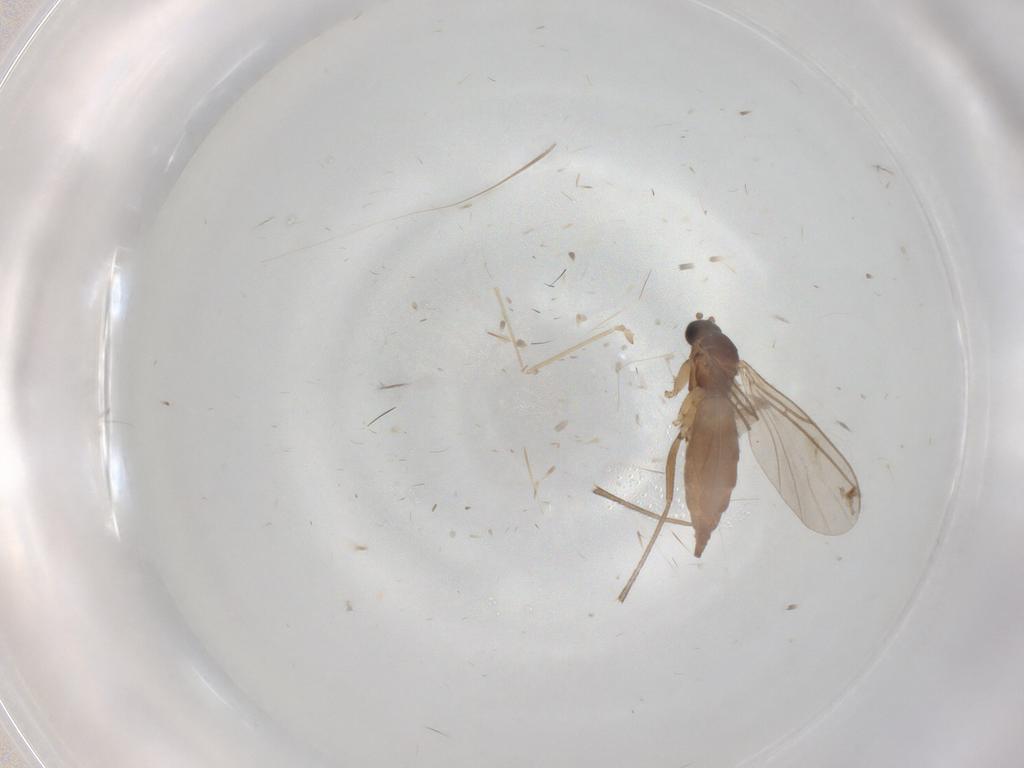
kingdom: Animalia
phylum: Arthropoda
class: Insecta
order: Diptera
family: Sciaridae
